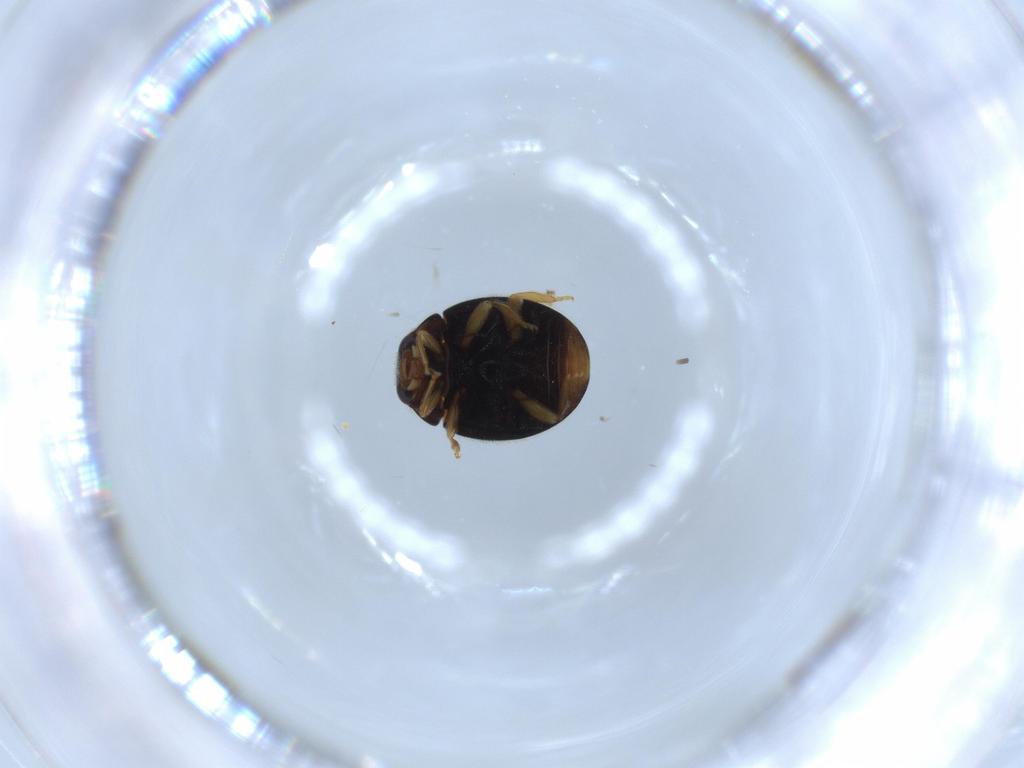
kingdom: Animalia
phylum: Arthropoda
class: Insecta
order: Coleoptera
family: Coccinellidae
